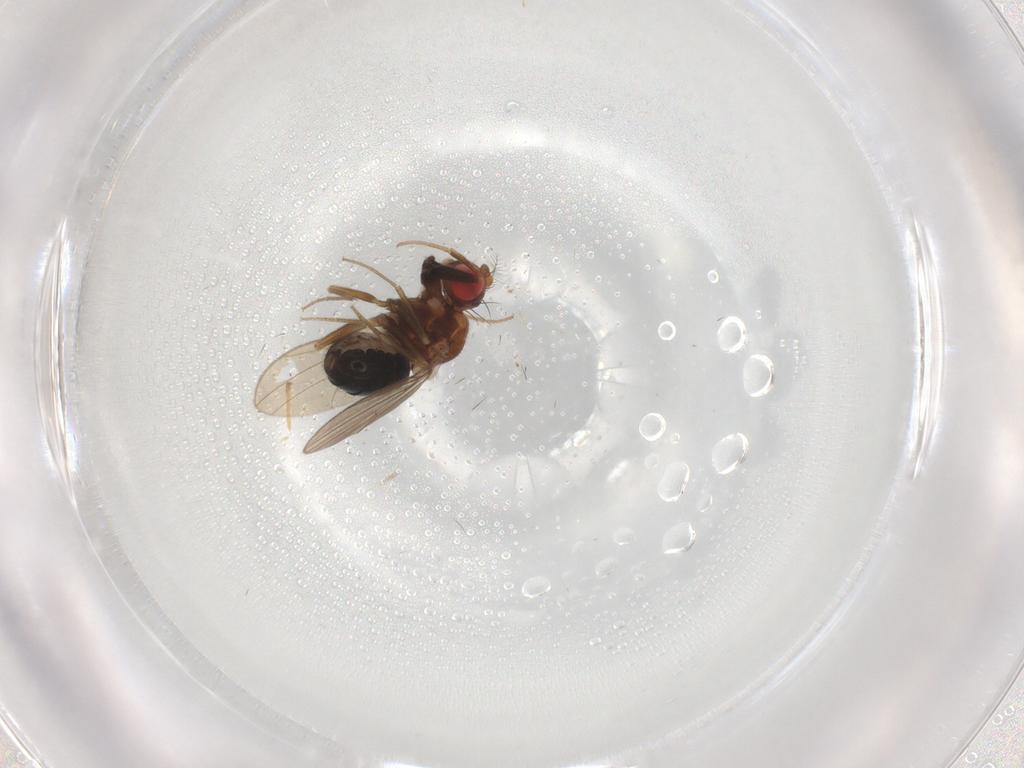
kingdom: Animalia
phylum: Arthropoda
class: Insecta
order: Diptera
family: Drosophilidae
